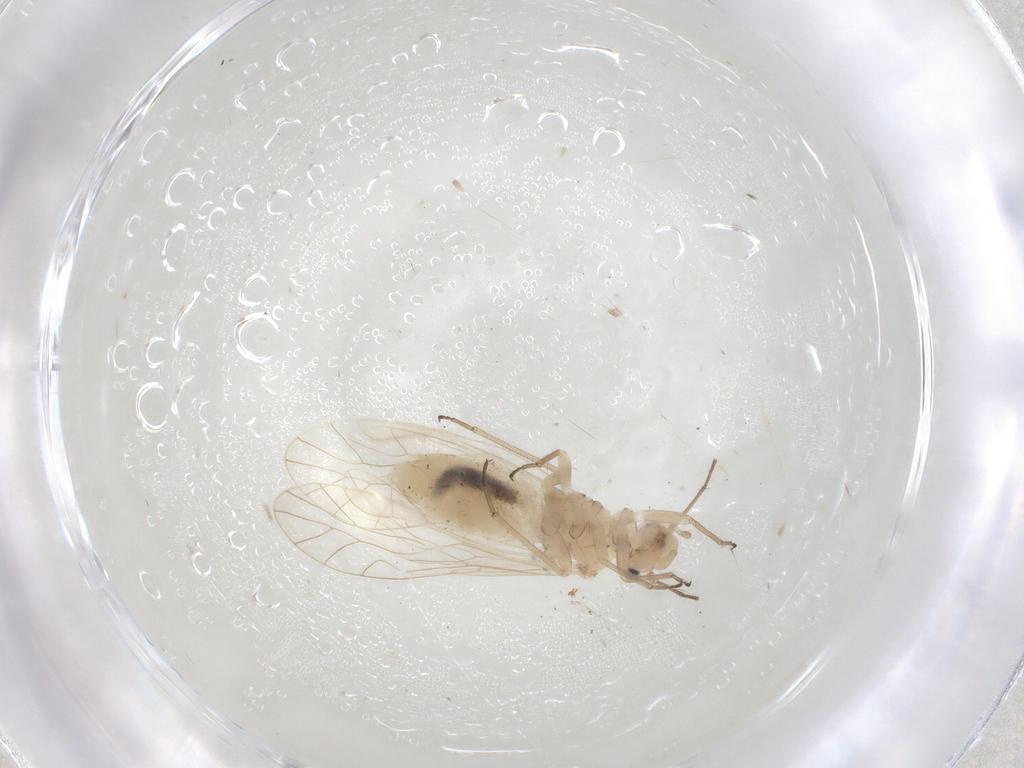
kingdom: Animalia
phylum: Arthropoda
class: Insecta
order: Psocodea
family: Elipsocidae
